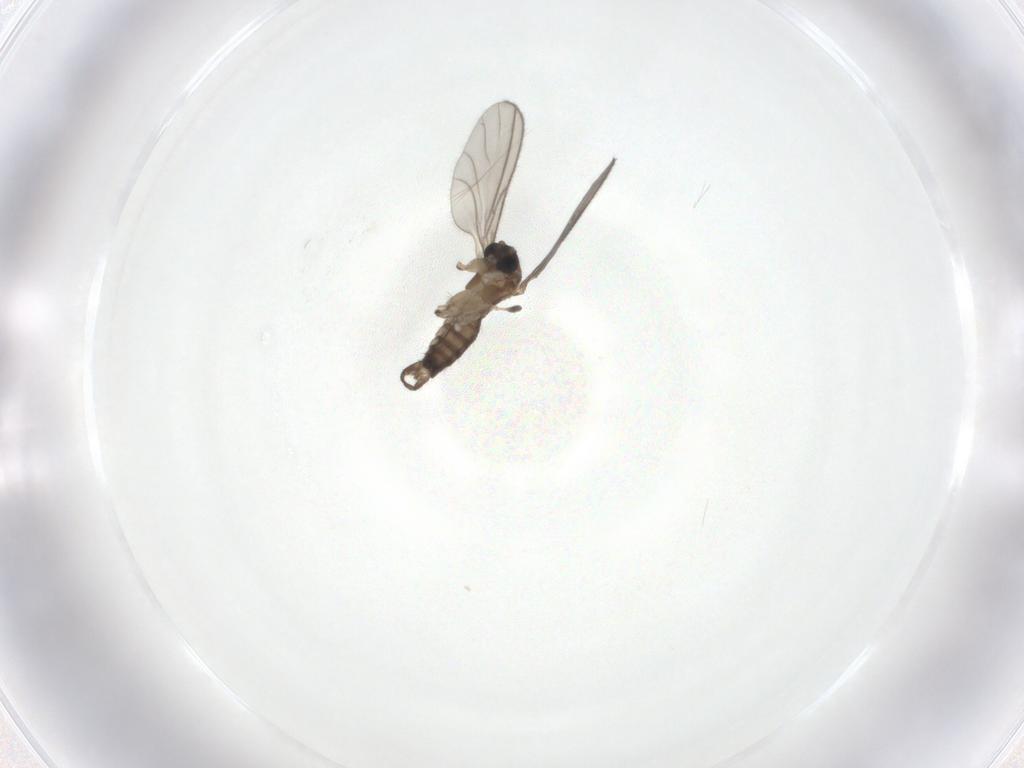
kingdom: Animalia
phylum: Arthropoda
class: Insecta
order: Diptera
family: Sciaridae
